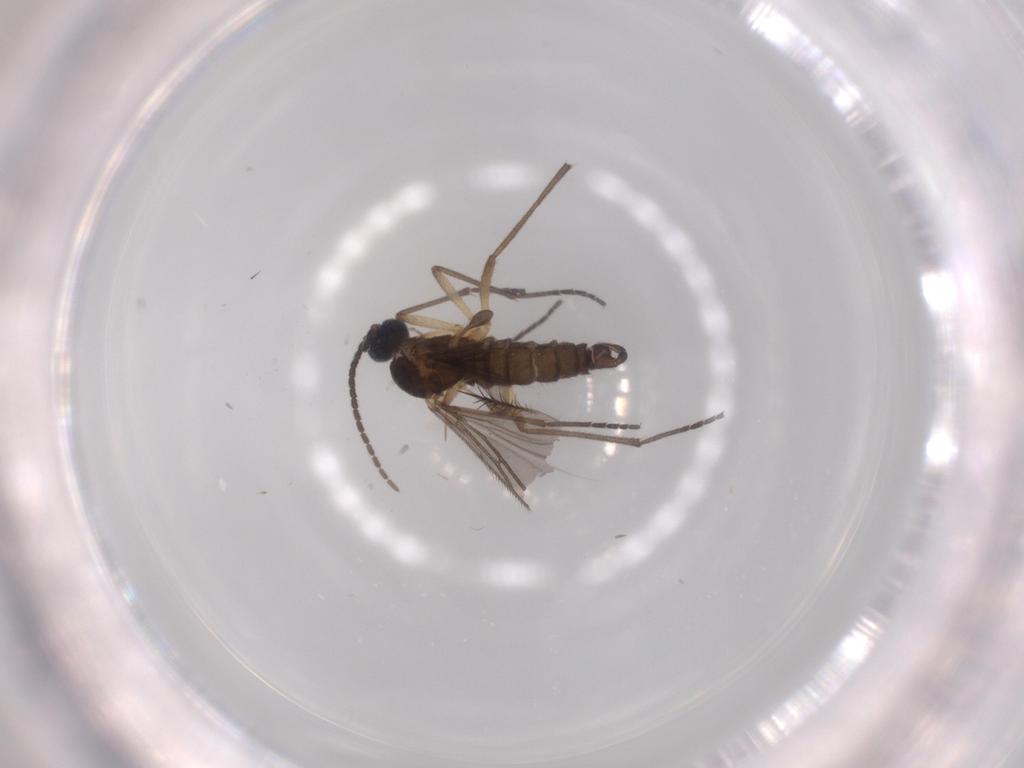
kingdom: Animalia
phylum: Arthropoda
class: Insecta
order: Diptera
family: Sciaridae
